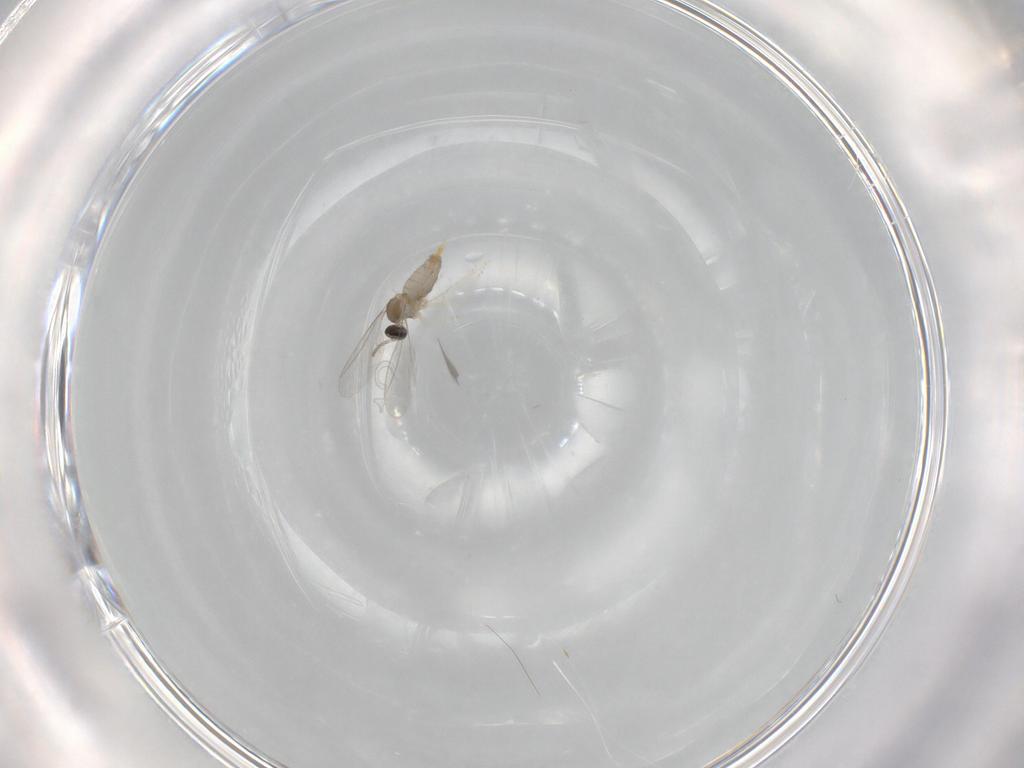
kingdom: Animalia
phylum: Arthropoda
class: Insecta
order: Diptera
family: Cecidomyiidae
